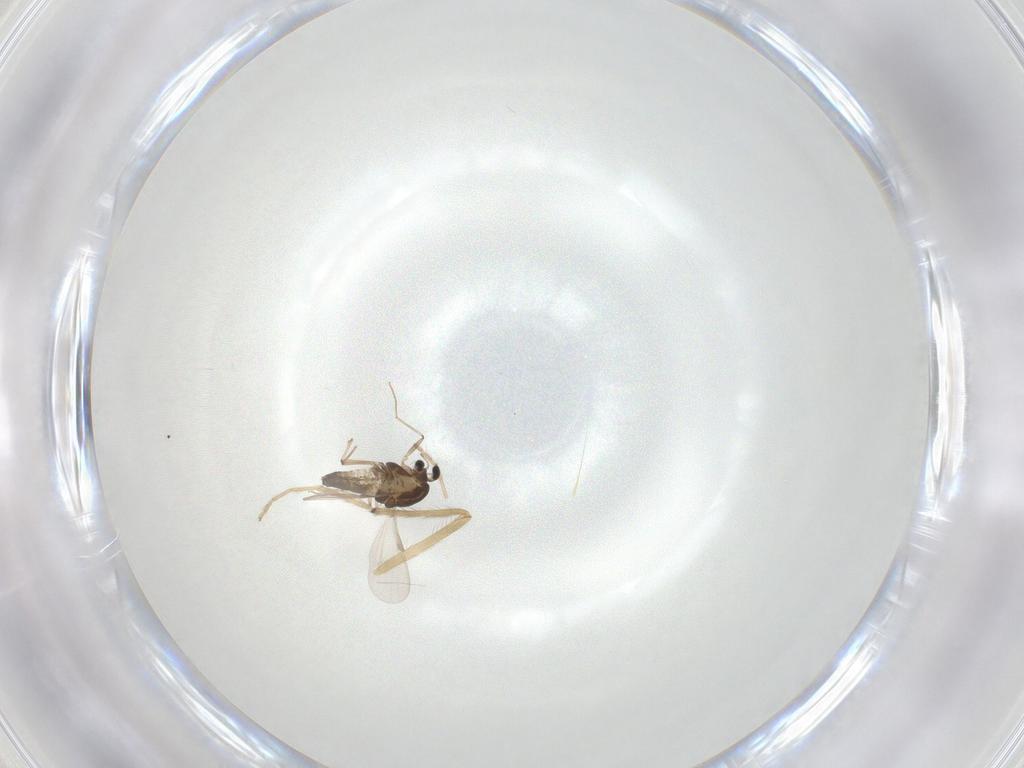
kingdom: Animalia
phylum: Arthropoda
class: Insecta
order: Diptera
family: Chironomidae
